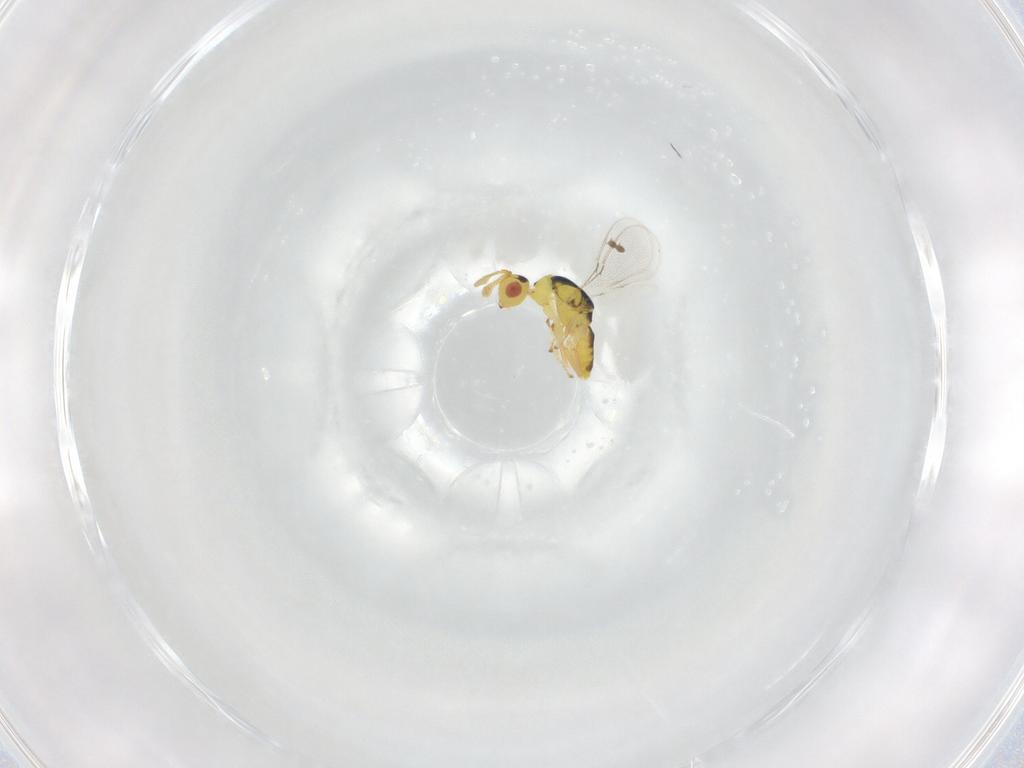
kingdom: Animalia
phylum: Arthropoda
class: Insecta
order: Hymenoptera
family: Megastigmidae
